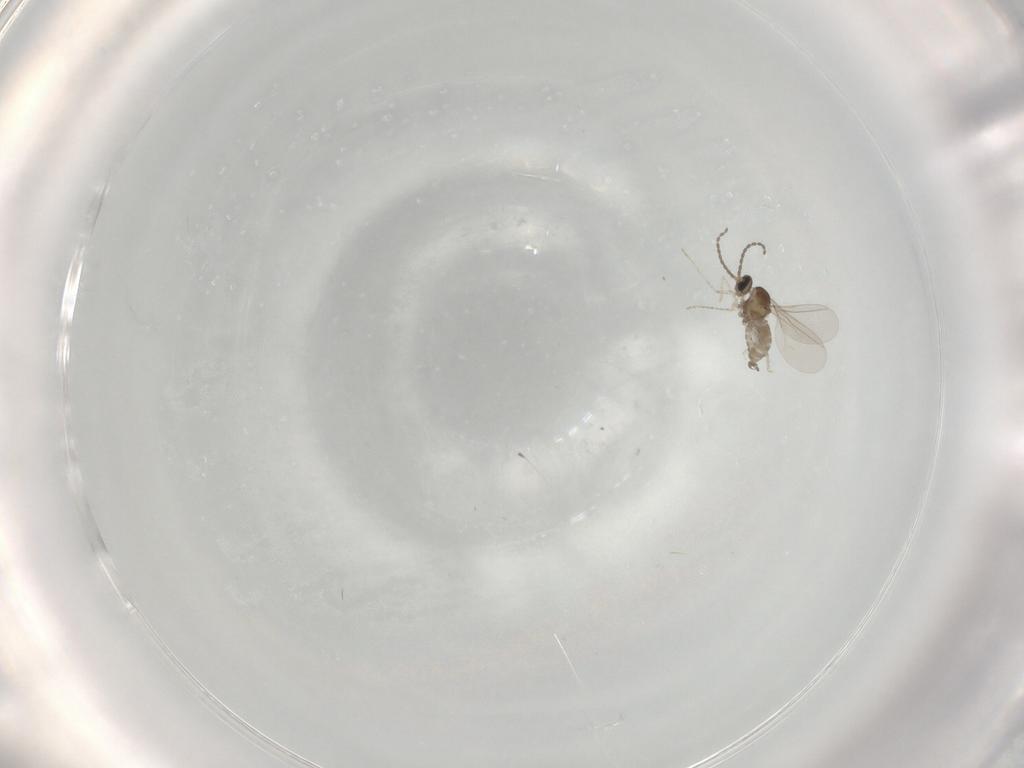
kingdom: Animalia
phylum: Arthropoda
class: Insecta
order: Diptera
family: Cecidomyiidae
